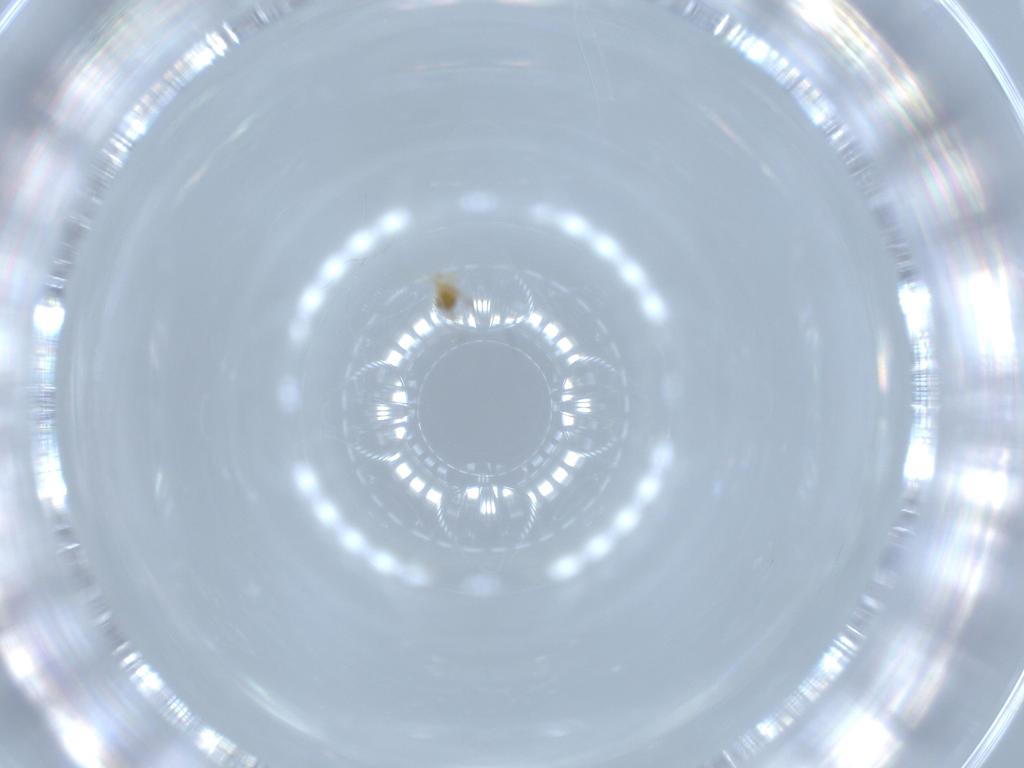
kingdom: Animalia
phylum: Arthropoda
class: Insecta
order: Hymenoptera
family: Trichogrammatidae
